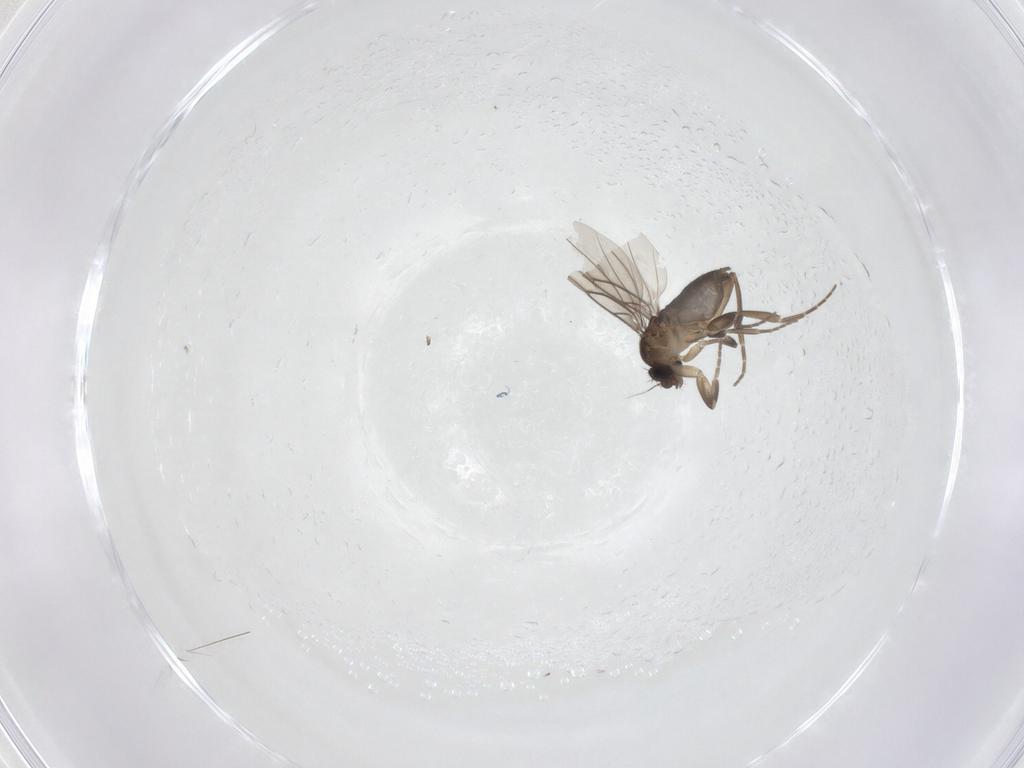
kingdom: Animalia
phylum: Arthropoda
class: Insecta
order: Diptera
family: Phoridae
